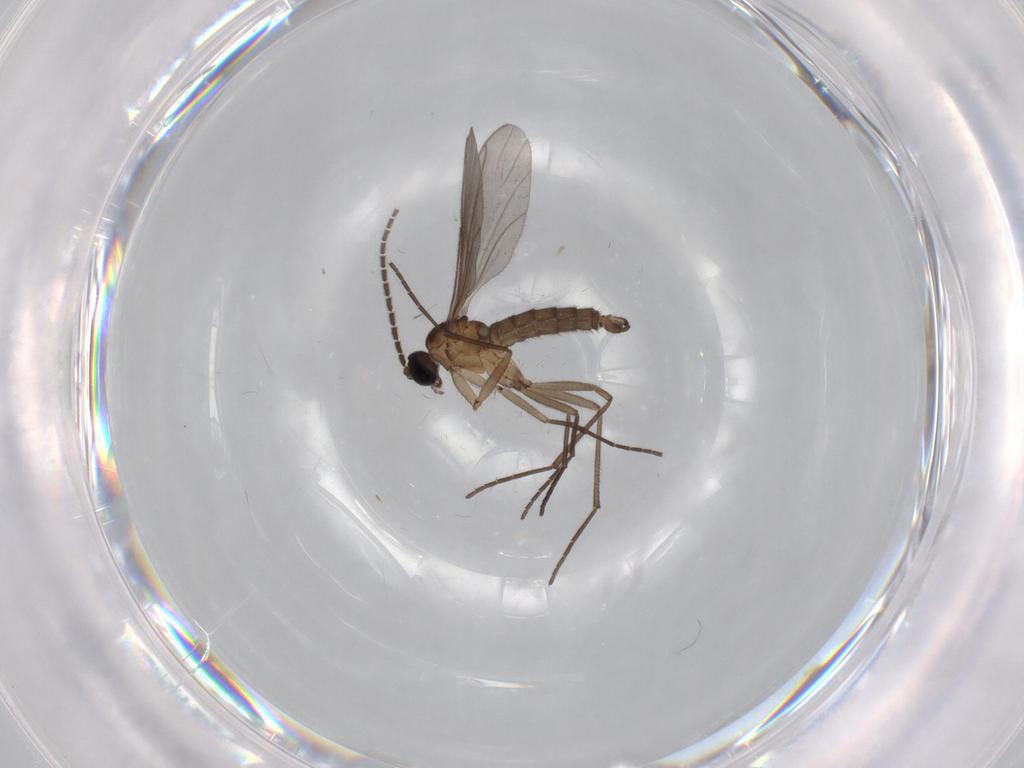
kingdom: Animalia
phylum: Arthropoda
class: Insecta
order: Diptera
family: Sciaridae
